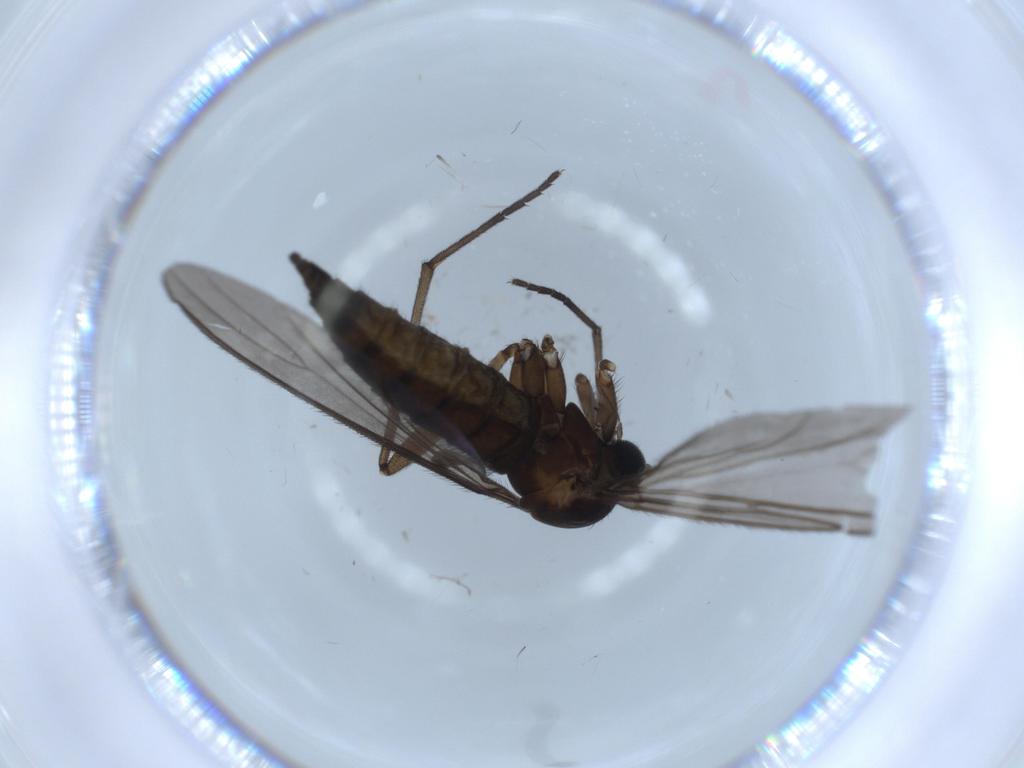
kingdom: Animalia
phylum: Arthropoda
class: Insecta
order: Diptera
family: Sciaridae
